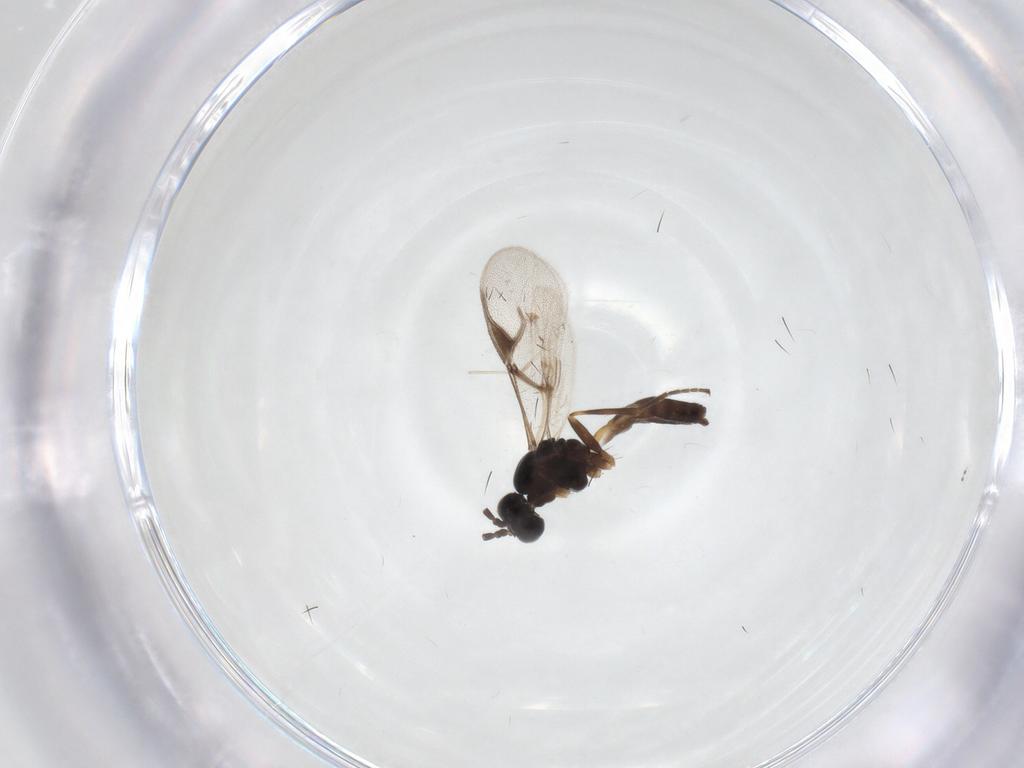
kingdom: Animalia
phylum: Arthropoda
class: Insecta
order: Hymenoptera
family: Braconidae
